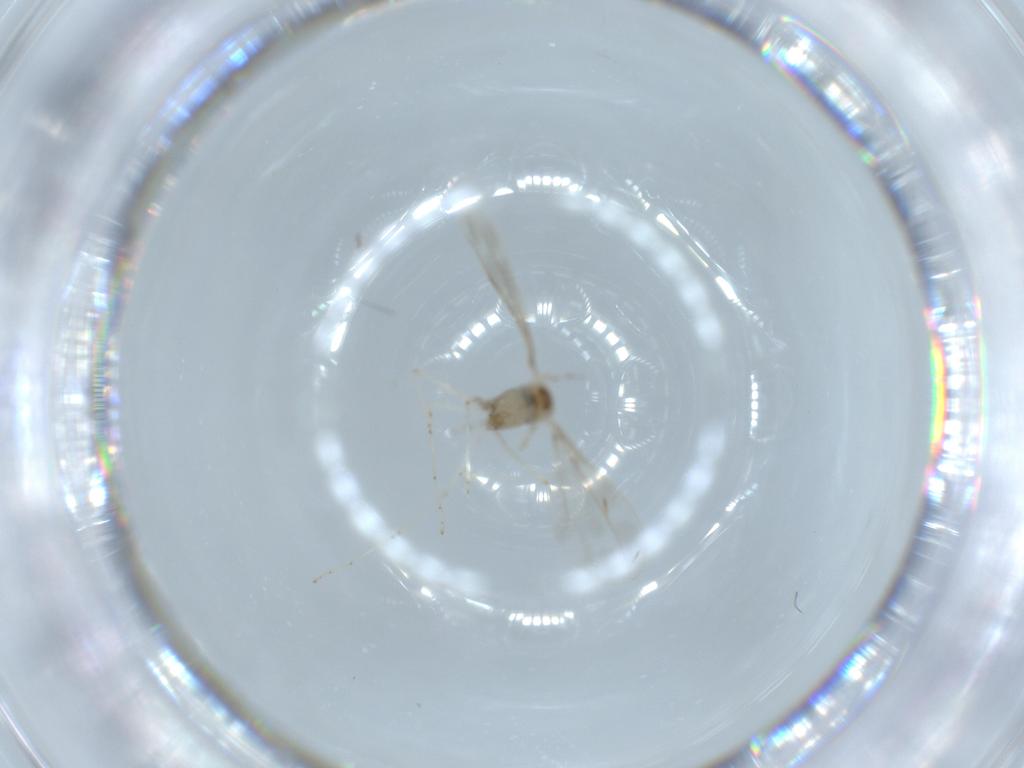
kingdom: Animalia
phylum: Arthropoda
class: Insecta
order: Diptera
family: Cecidomyiidae
